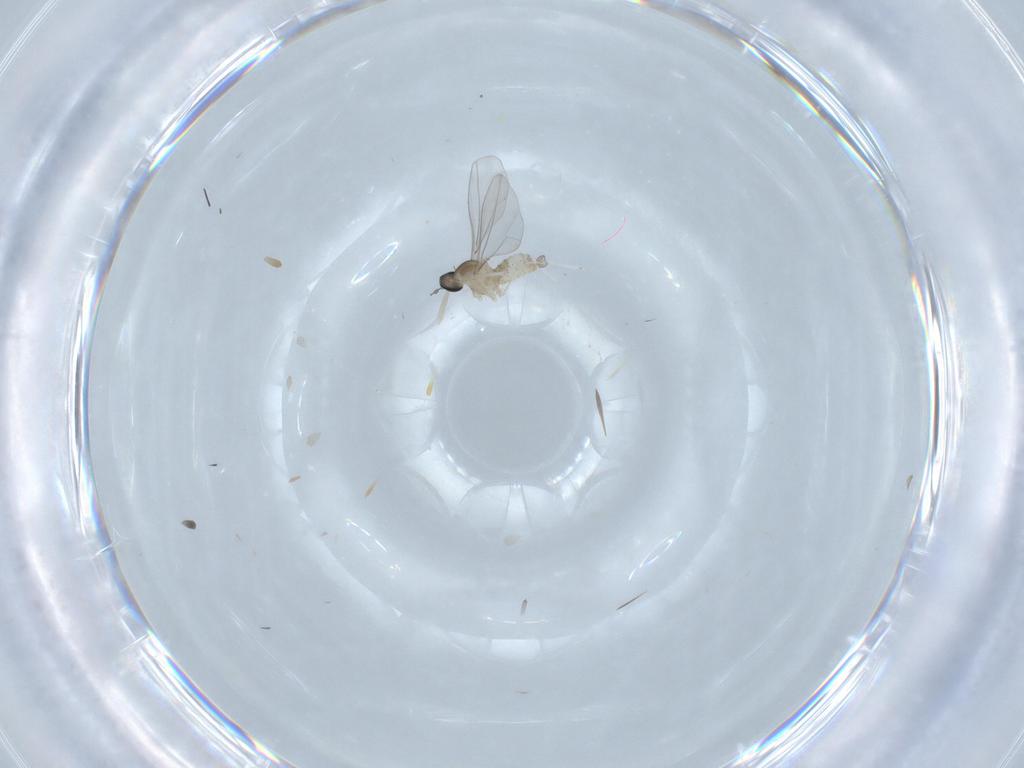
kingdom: Animalia
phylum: Arthropoda
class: Insecta
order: Diptera
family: Cecidomyiidae
